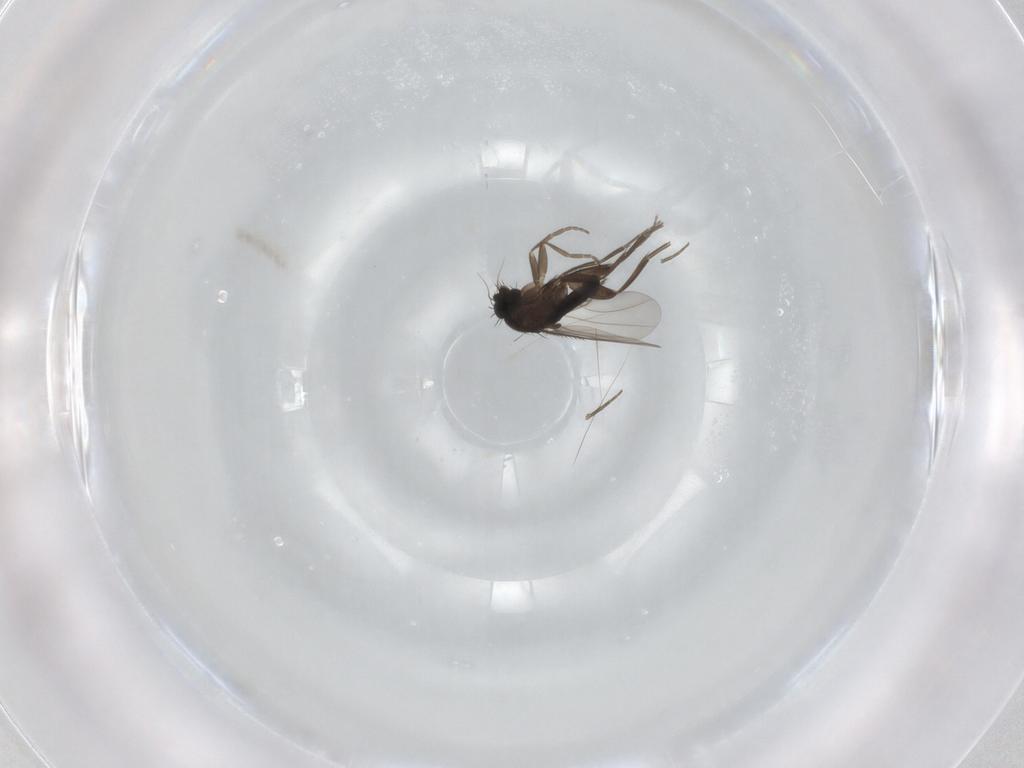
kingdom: Animalia
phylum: Arthropoda
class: Insecta
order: Diptera
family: Phoridae
